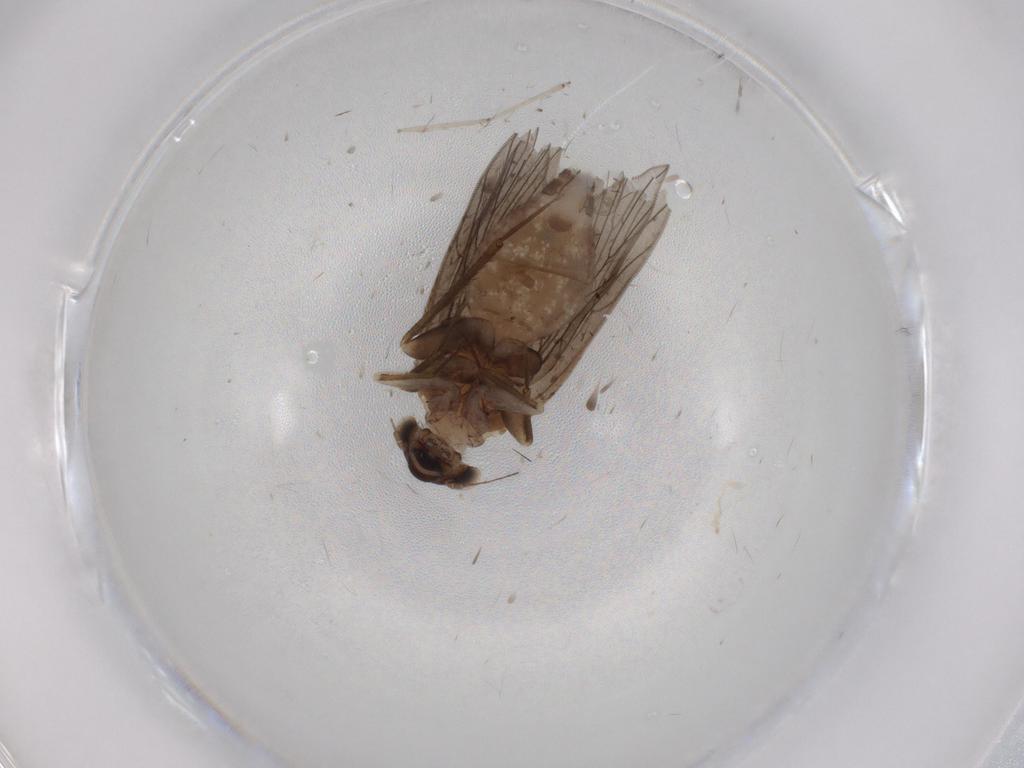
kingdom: Animalia
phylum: Arthropoda
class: Insecta
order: Psocodea
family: Lepidopsocidae
